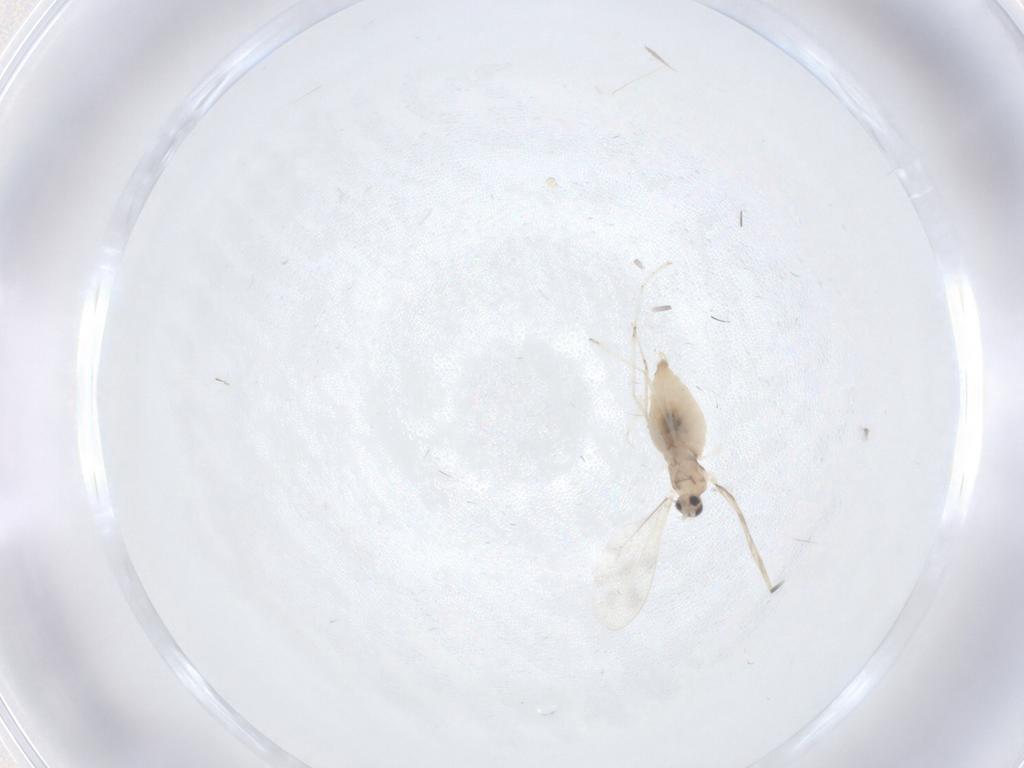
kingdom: Animalia
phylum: Arthropoda
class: Insecta
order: Diptera
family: Cecidomyiidae
